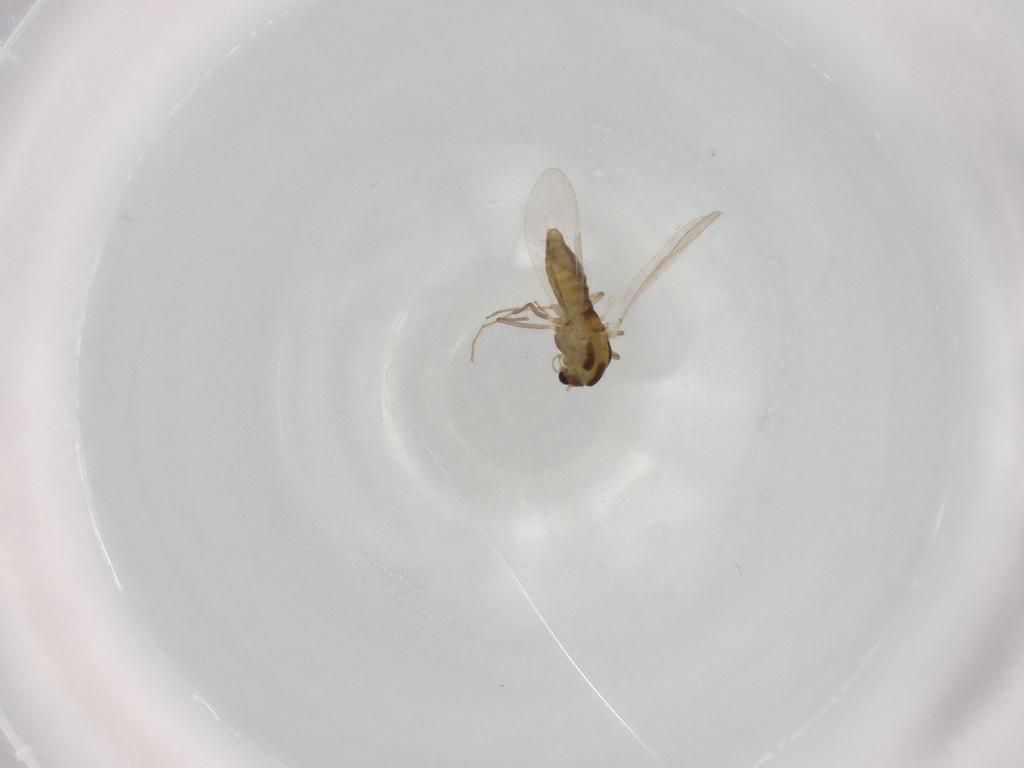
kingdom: Animalia
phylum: Arthropoda
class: Insecta
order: Diptera
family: Chironomidae
